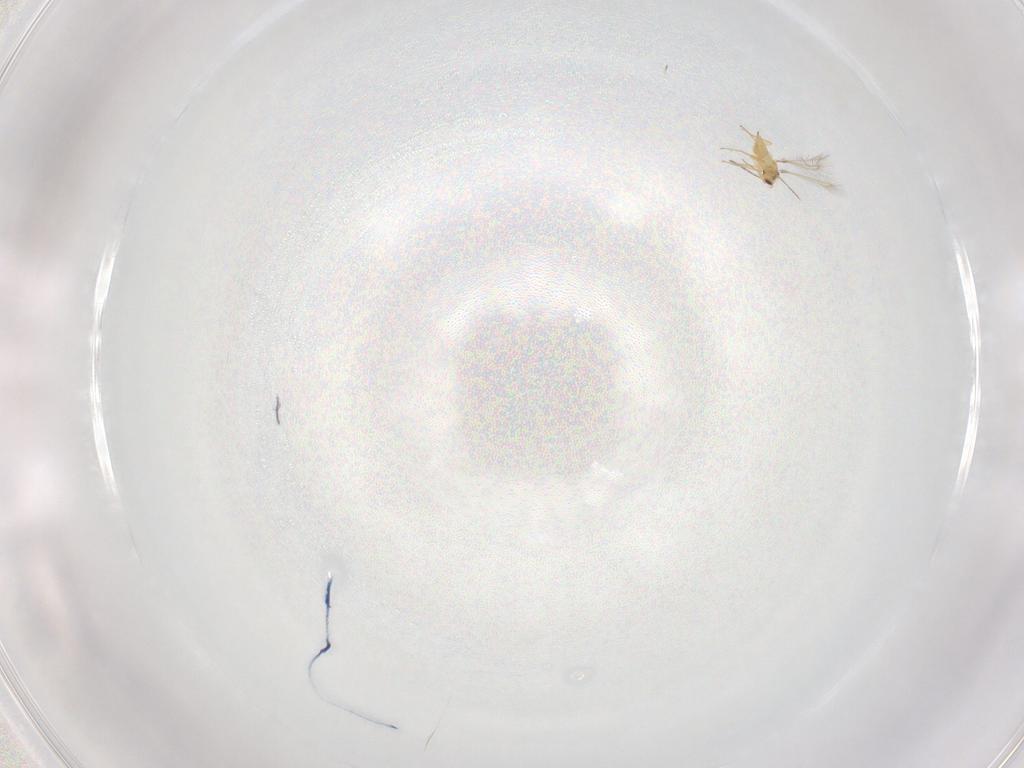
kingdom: Animalia
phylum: Arthropoda
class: Insecta
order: Hymenoptera
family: Mymaridae
